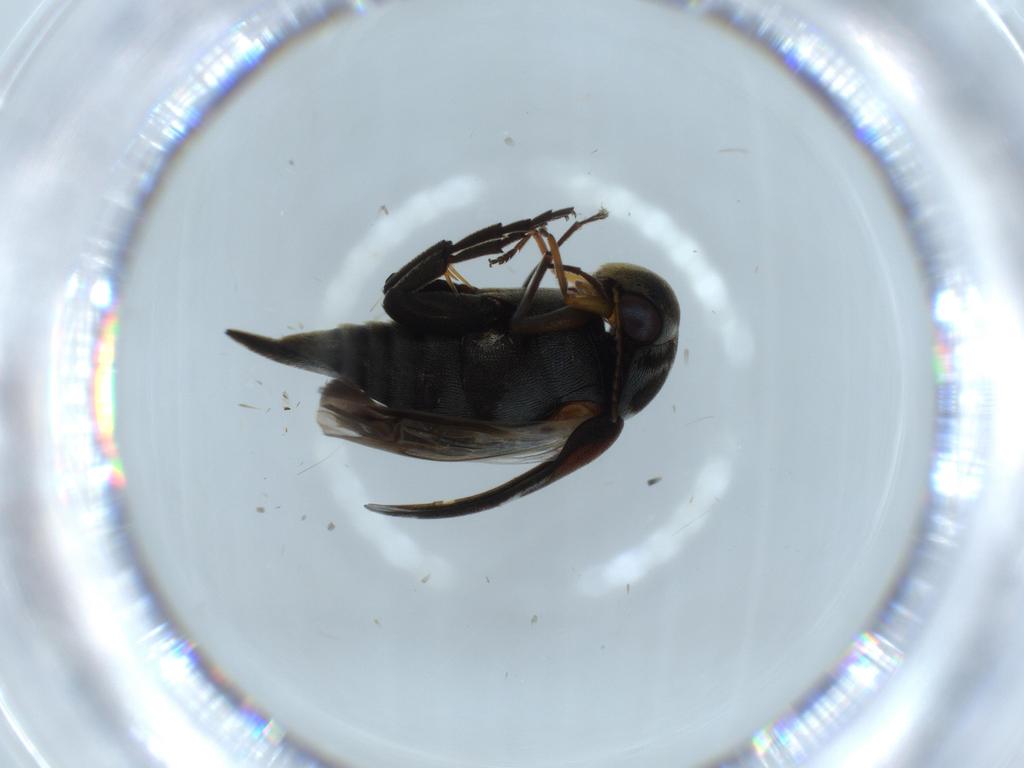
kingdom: Animalia
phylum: Arthropoda
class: Insecta
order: Coleoptera
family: Mordellidae
